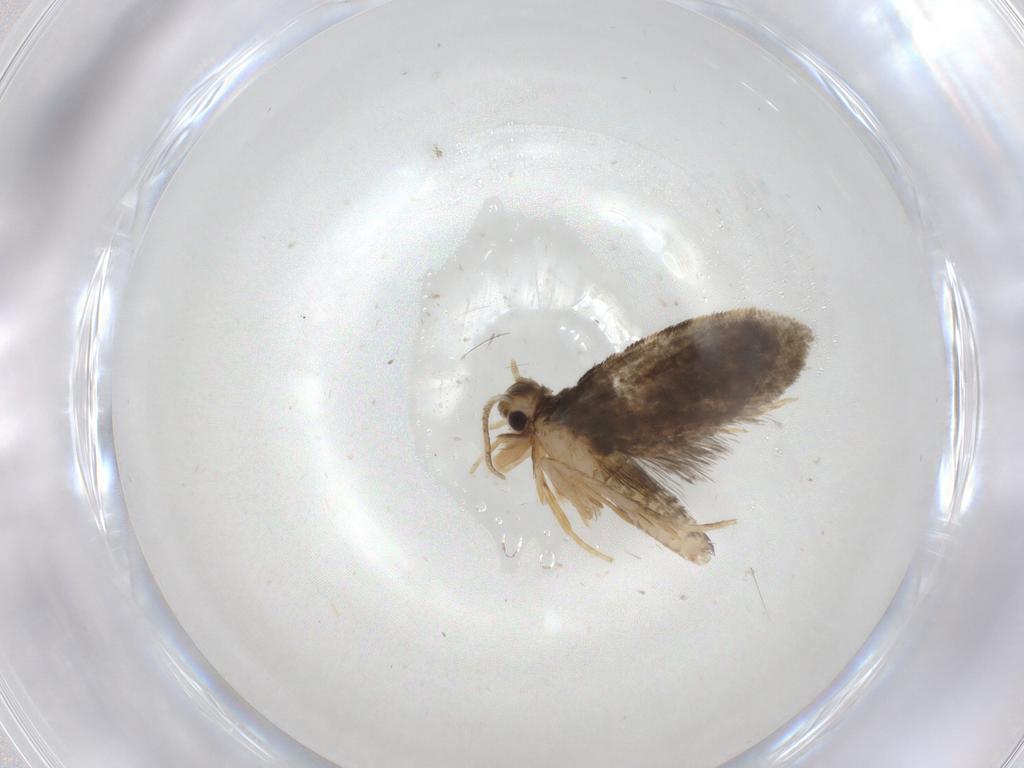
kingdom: Animalia
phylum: Arthropoda
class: Insecta
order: Lepidoptera
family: Psychidae
